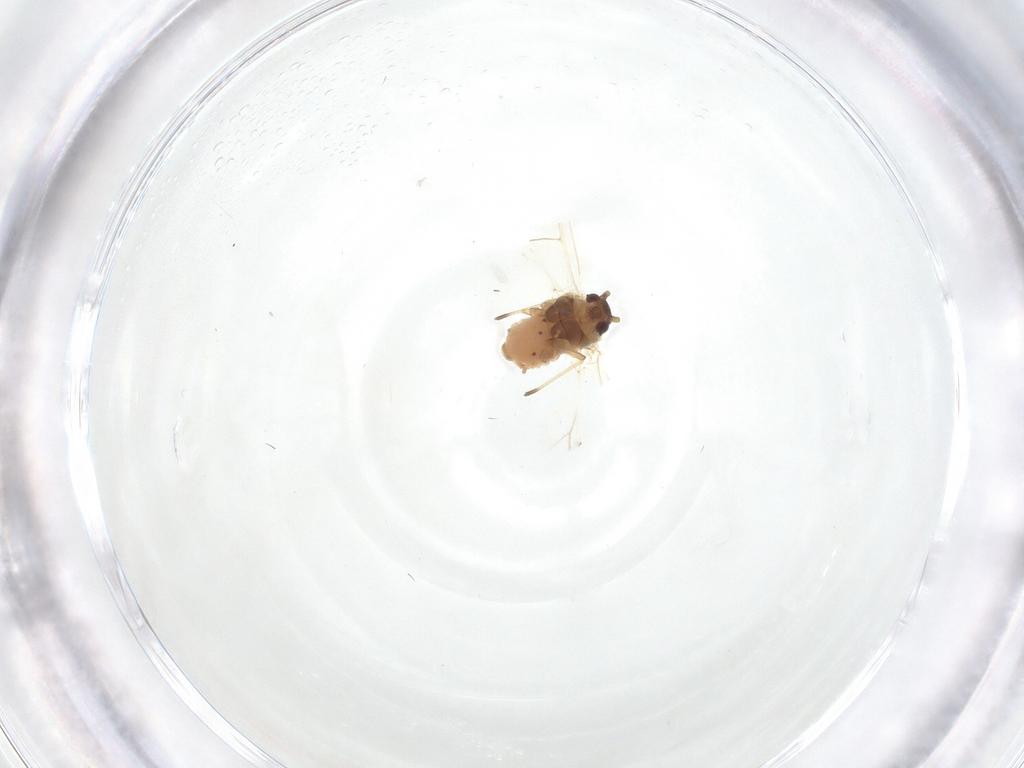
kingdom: Animalia
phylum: Arthropoda
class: Insecta
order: Hemiptera
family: Aphididae
